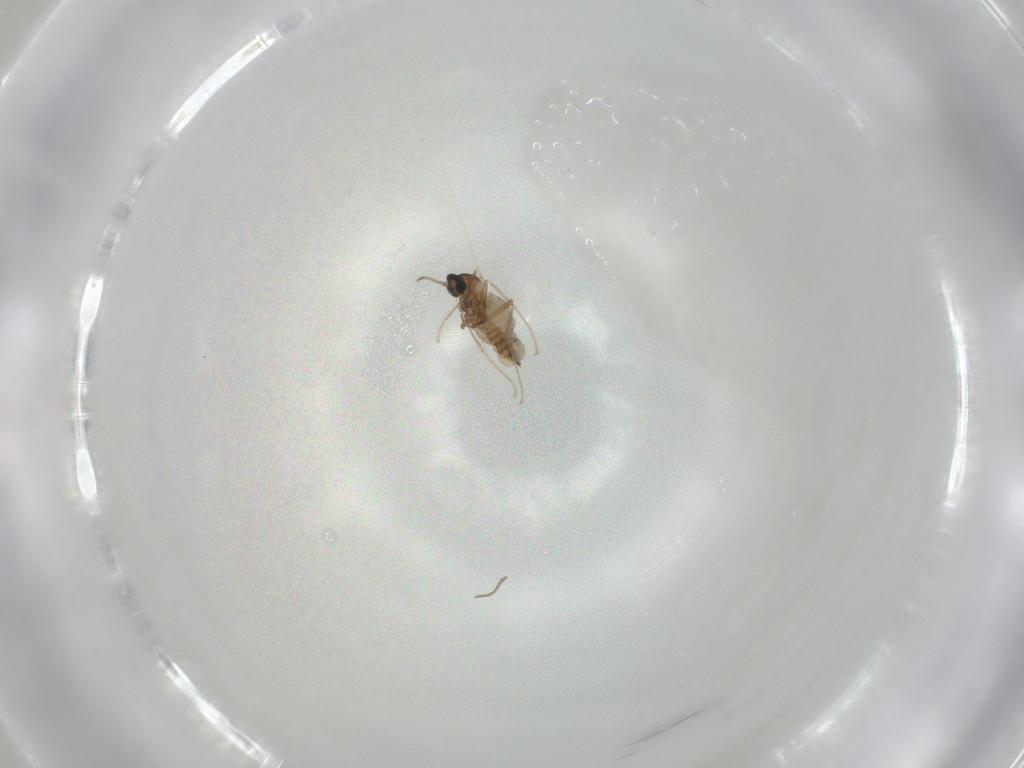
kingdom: Animalia
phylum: Arthropoda
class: Insecta
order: Diptera
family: Cecidomyiidae
